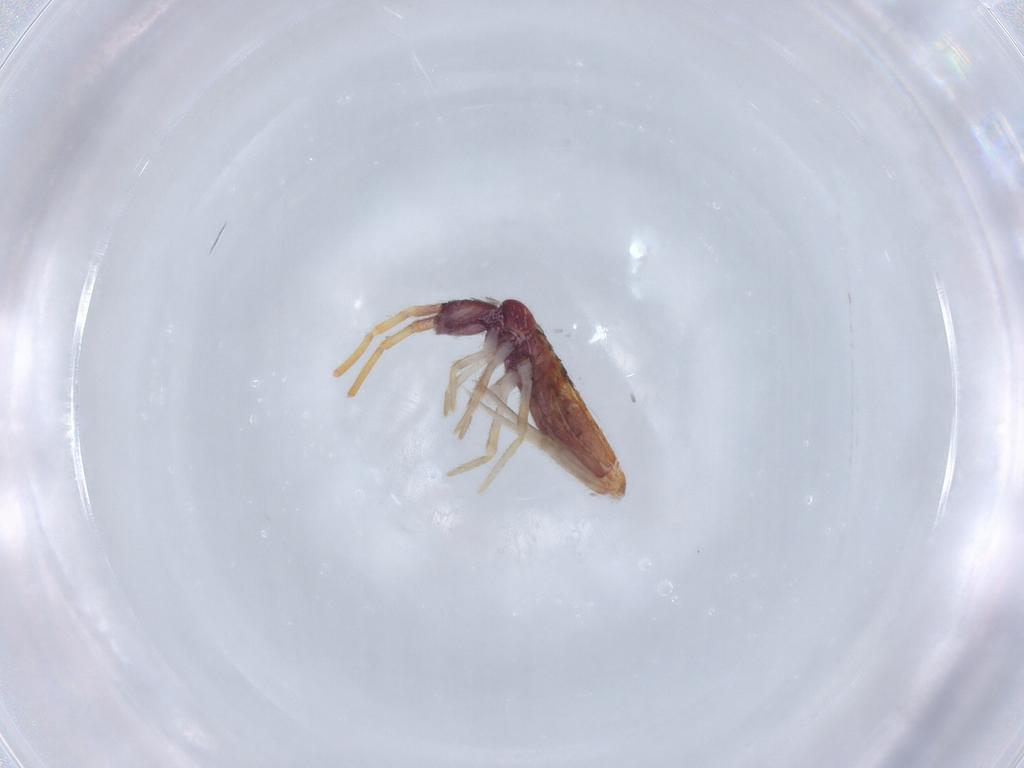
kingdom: Animalia
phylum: Arthropoda
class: Collembola
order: Entomobryomorpha
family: Entomobryidae
